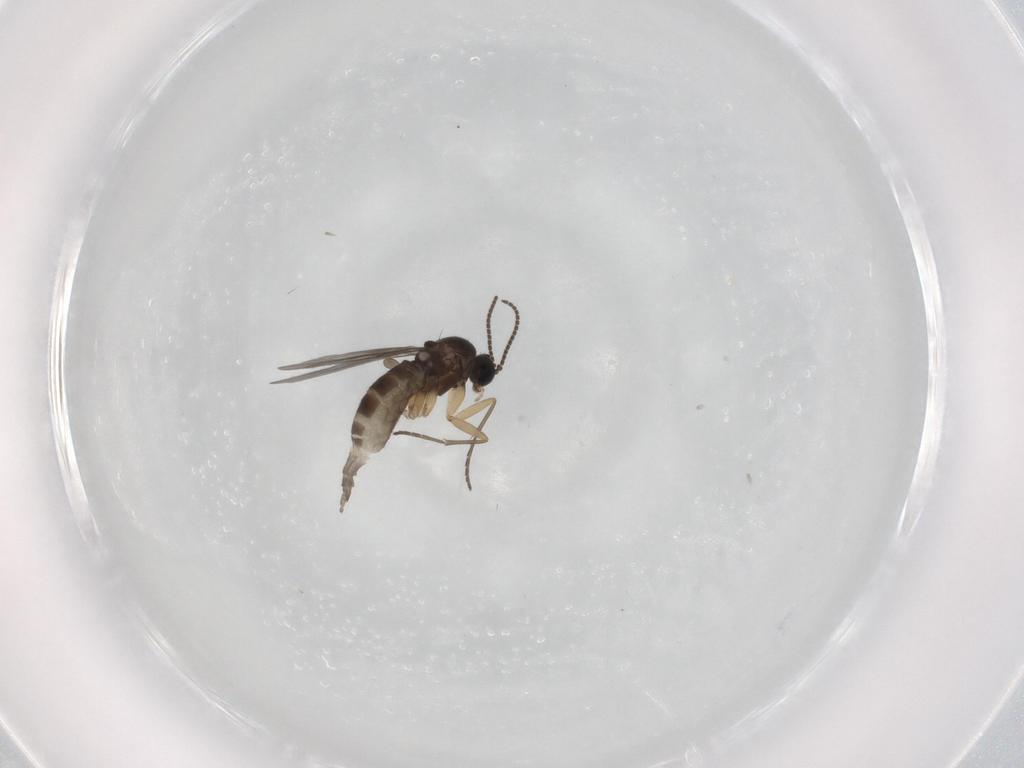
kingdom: Animalia
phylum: Arthropoda
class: Insecta
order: Diptera
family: Sciaridae
